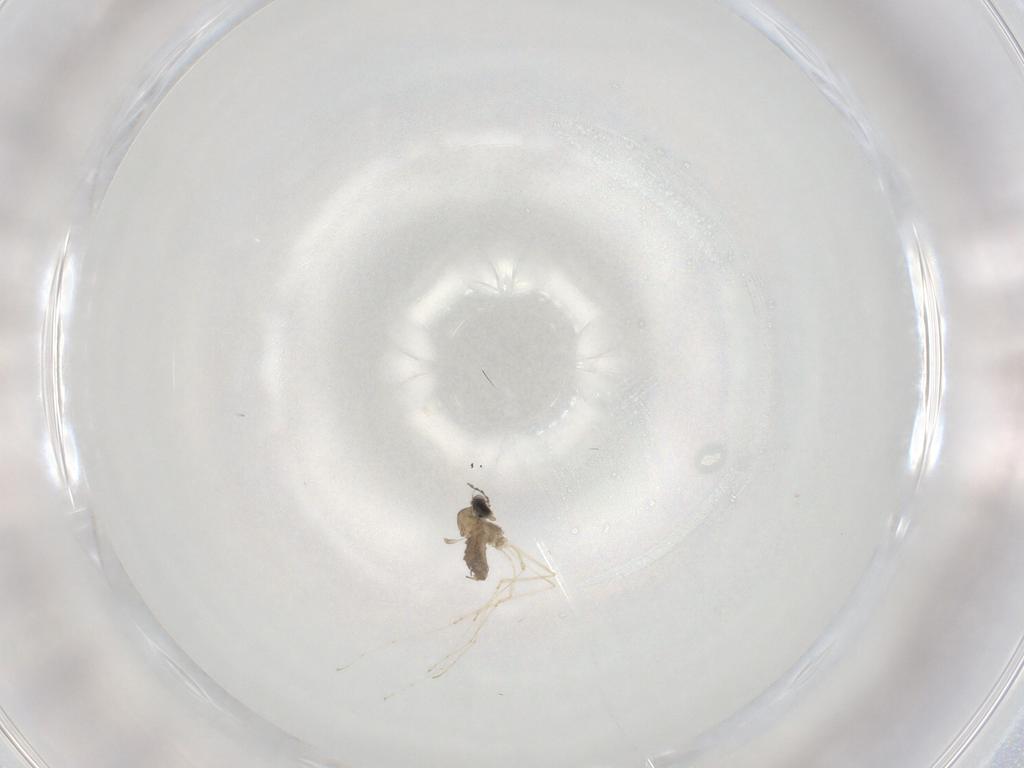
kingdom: Animalia
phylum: Arthropoda
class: Insecta
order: Diptera
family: Cecidomyiidae
